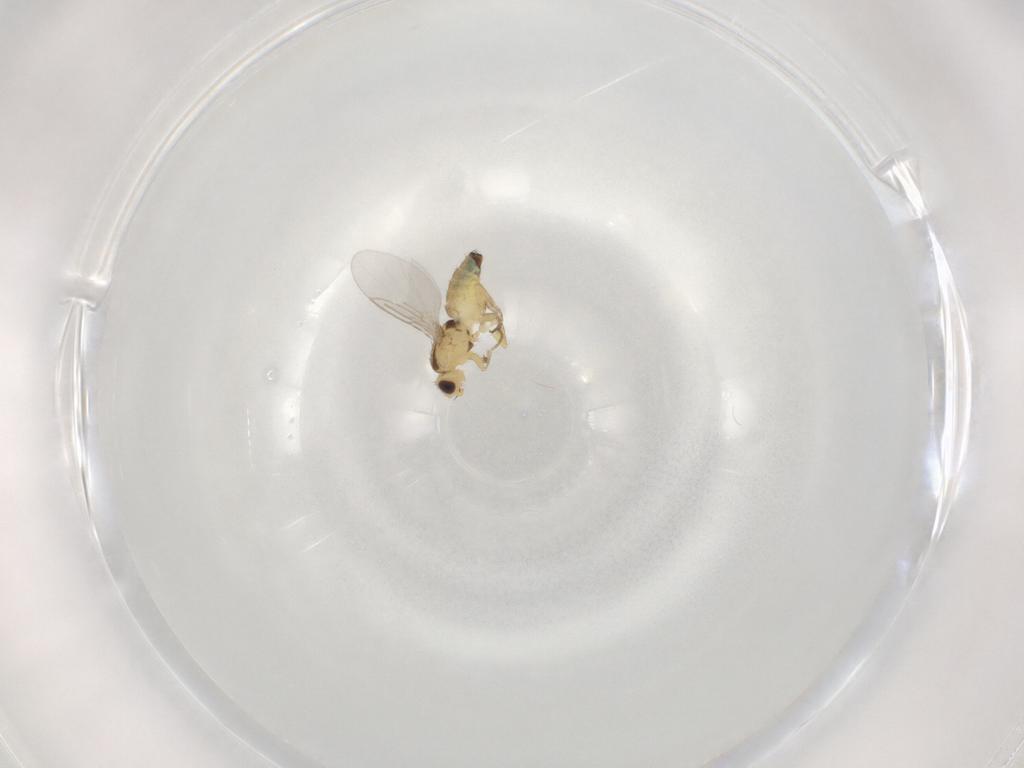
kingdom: Animalia
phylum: Arthropoda
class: Insecta
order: Diptera
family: Agromyzidae
